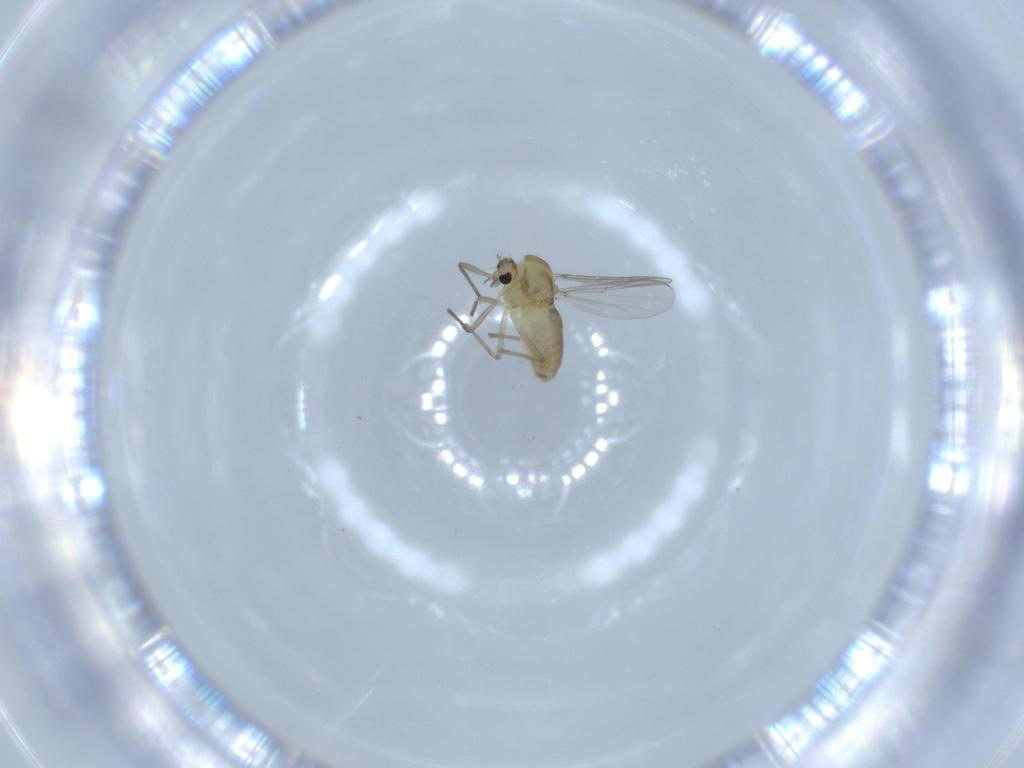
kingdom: Animalia
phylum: Arthropoda
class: Insecta
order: Diptera
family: Chironomidae
